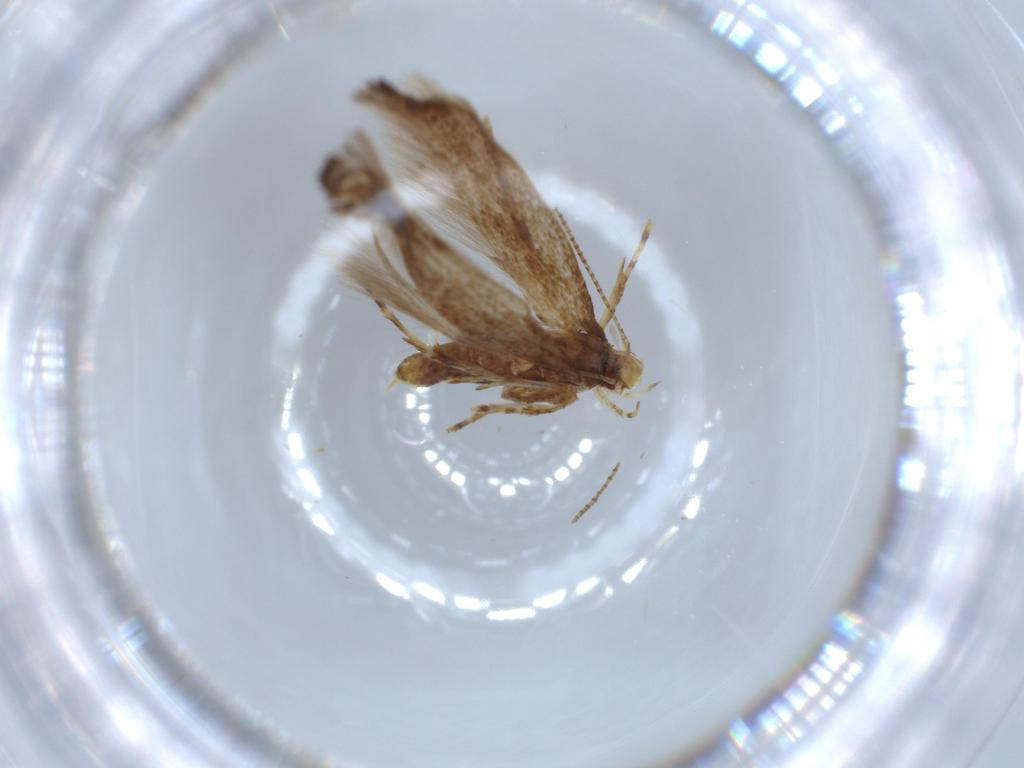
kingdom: Animalia
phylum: Arthropoda
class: Insecta
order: Lepidoptera
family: Cosmopterigidae
